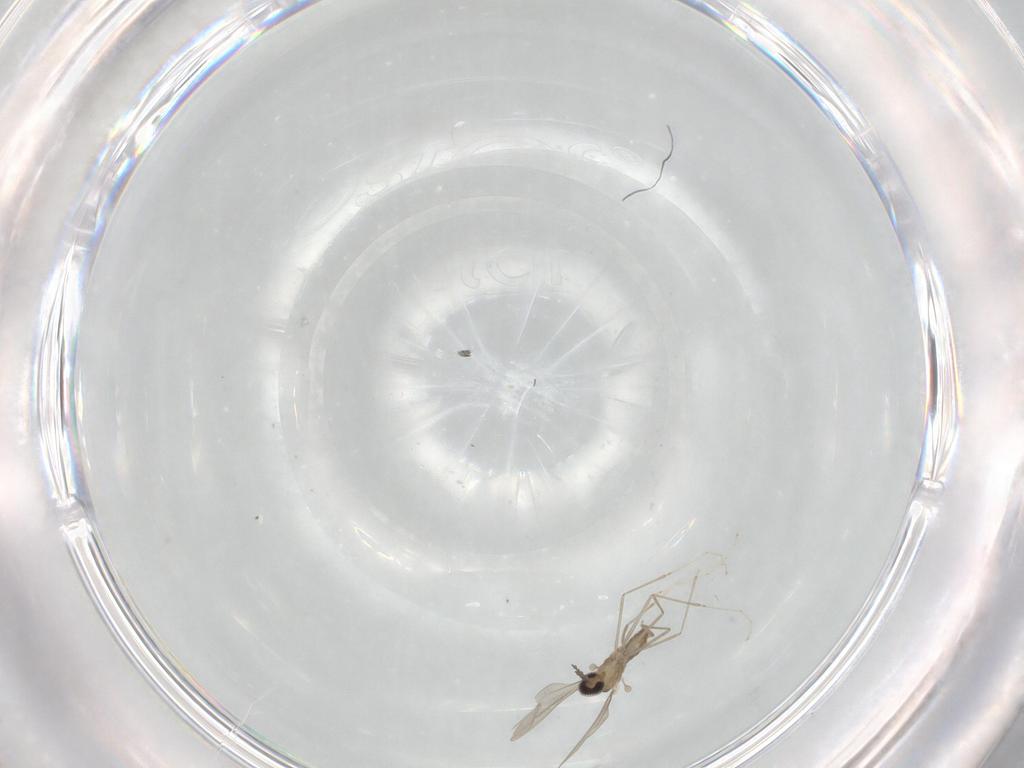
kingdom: Animalia
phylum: Arthropoda
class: Insecta
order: Diptera
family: Cecidomyiidae
